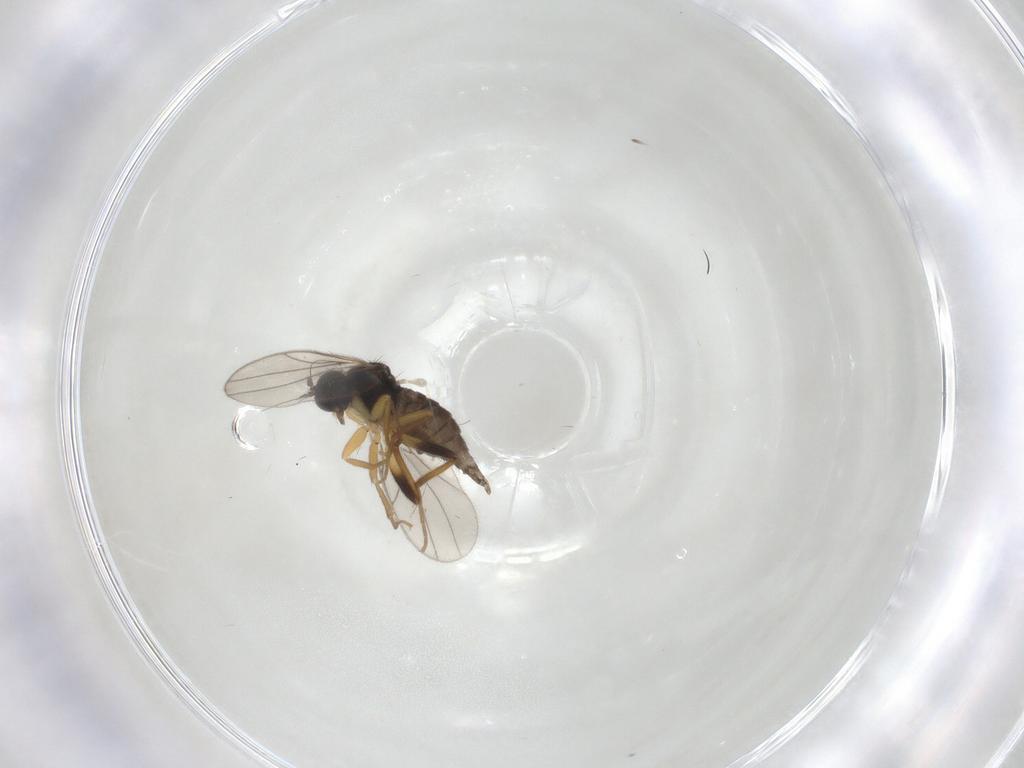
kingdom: Animalia
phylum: Arthropoda
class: Insecta
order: Diptera
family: Hybotidae
